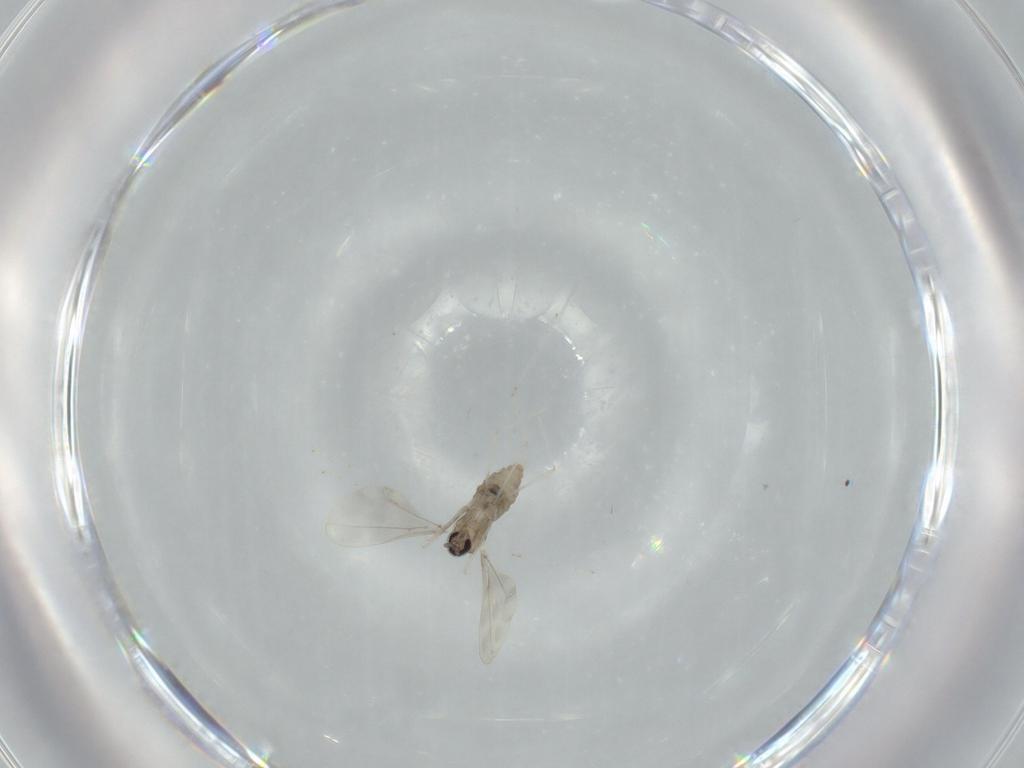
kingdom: Animalia
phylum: Arthropoda
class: Insecta
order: Diptera
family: Cecidomyiidae
